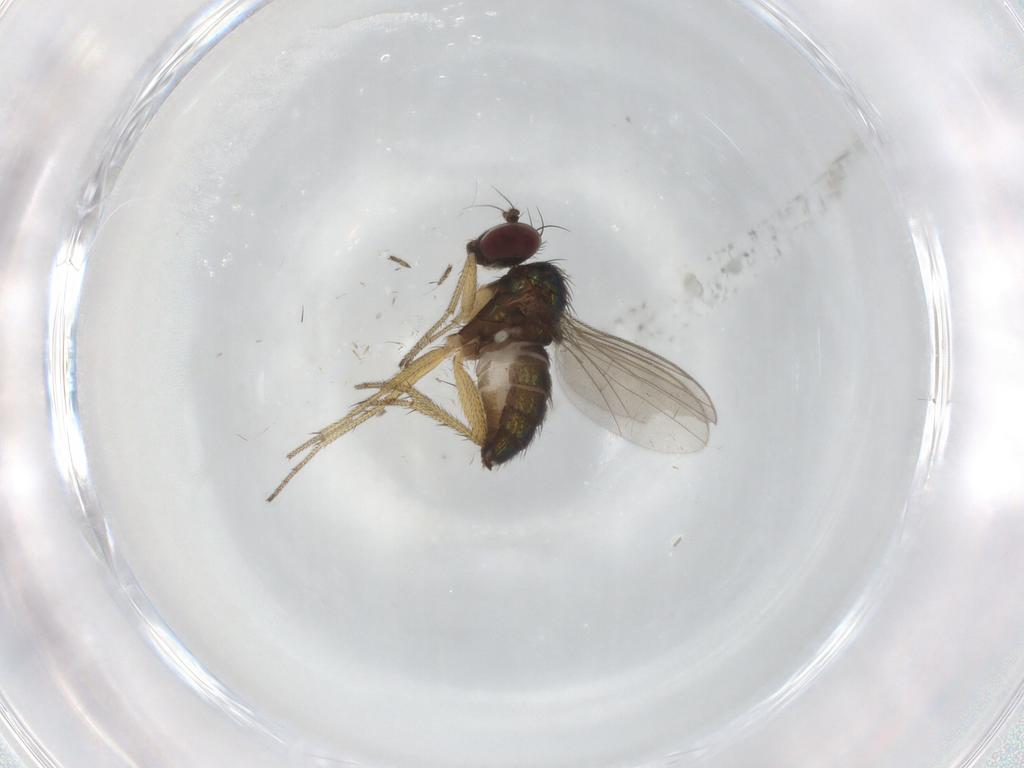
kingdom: Animalia
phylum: Arthropoda
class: Insecta
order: Diptera
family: Dolichopodidae
